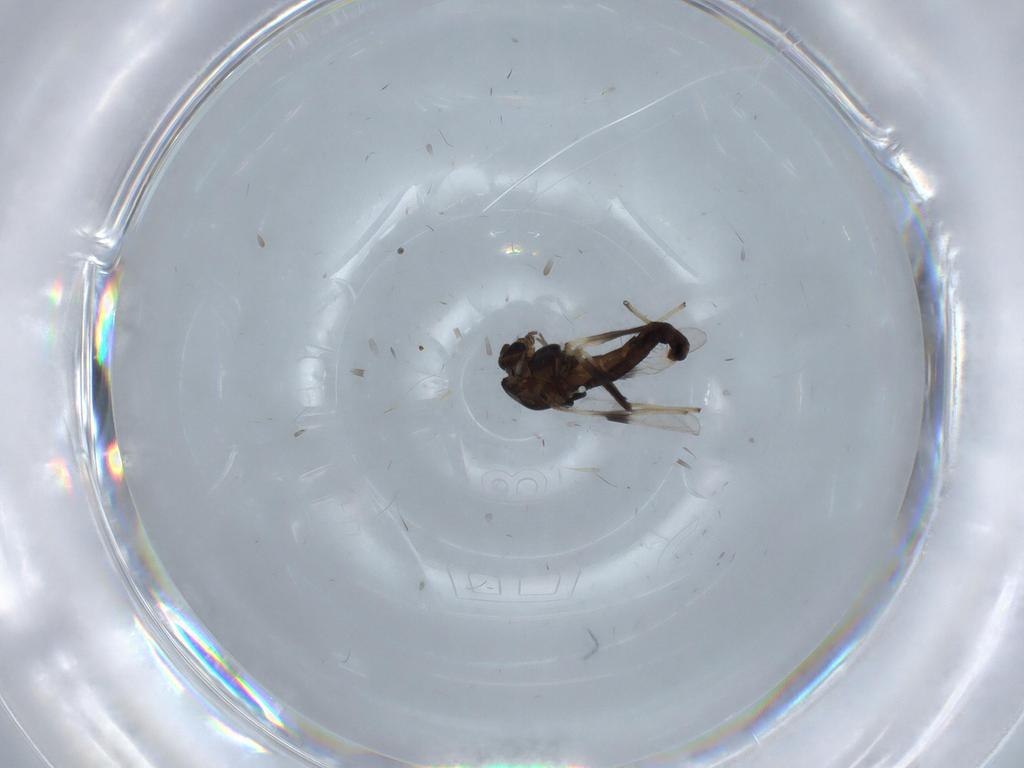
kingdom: Animalia
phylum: Arthropoda
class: Insecta
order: Diptera
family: Chironomidae
